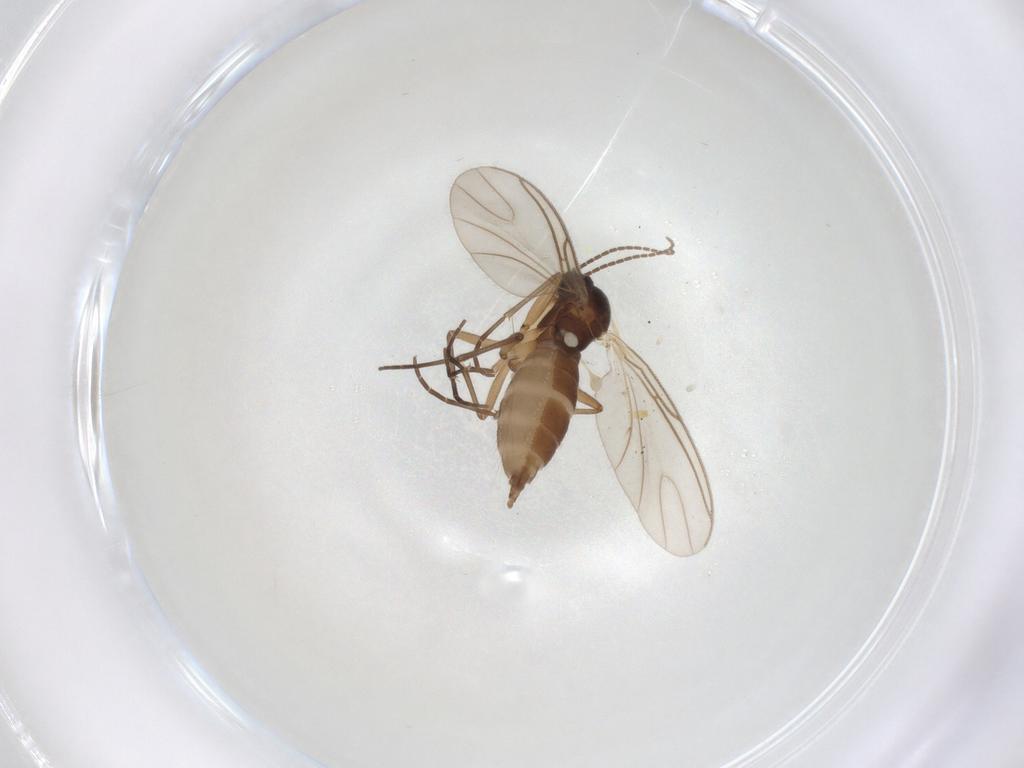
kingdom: Animalia
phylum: Arthropoda
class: Insecta
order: Diptera
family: Sciaridae
